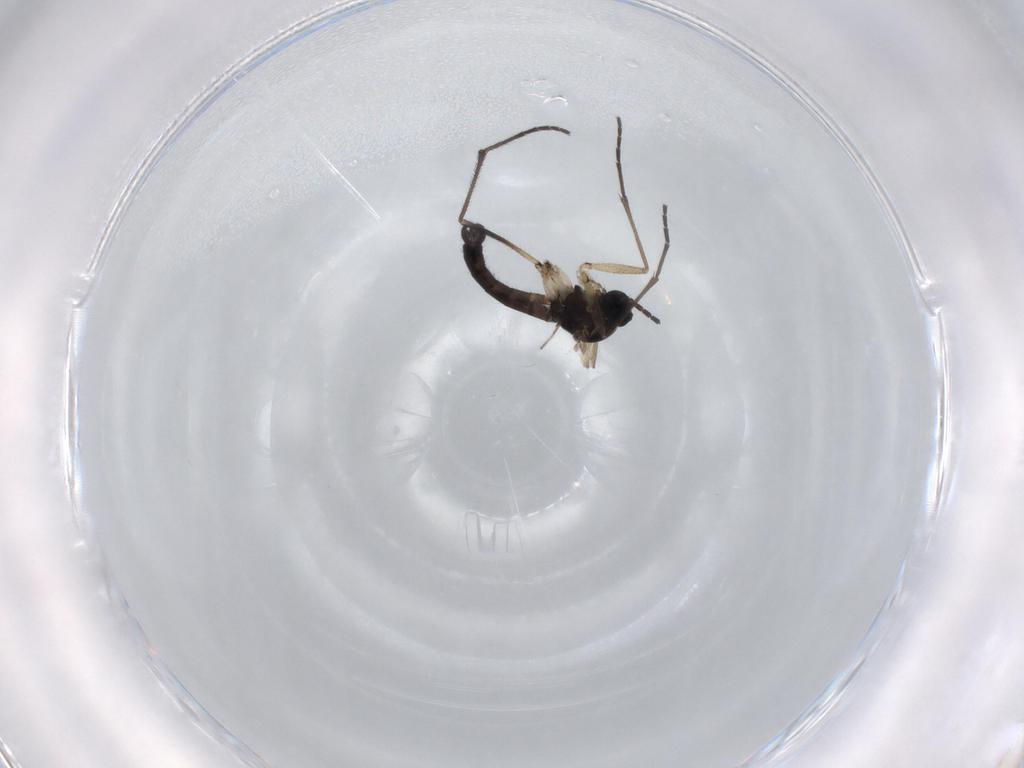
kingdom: Animalia
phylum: Arthropoda
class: Insecta
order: Diptera
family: Sciaridae
